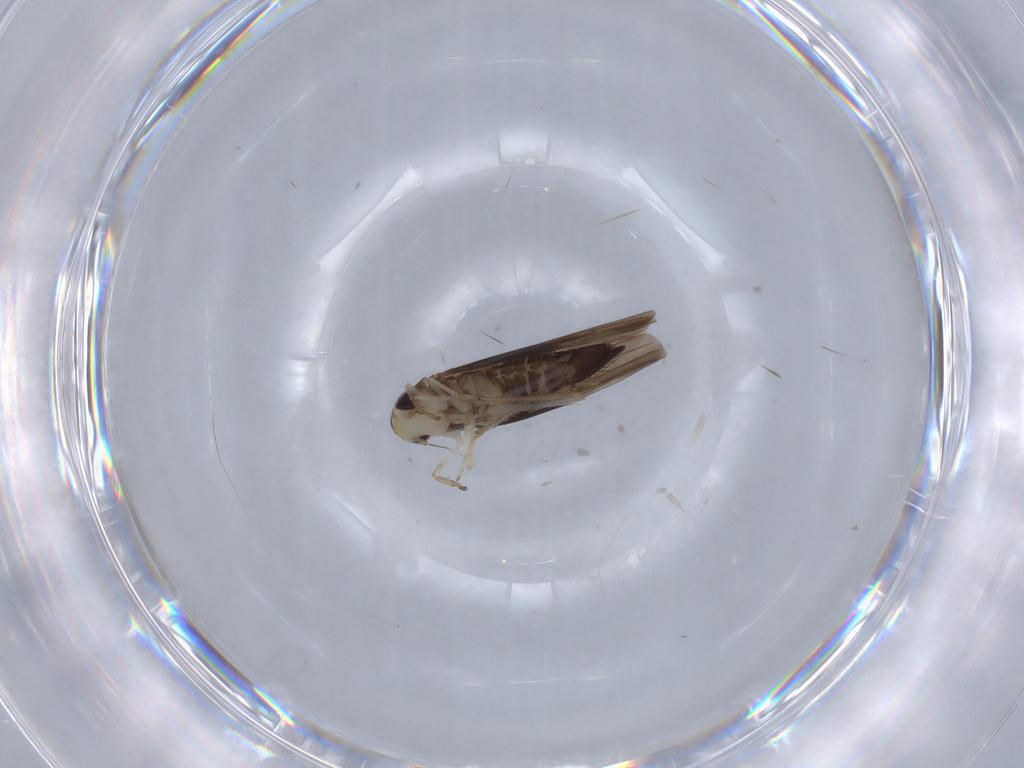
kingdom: Animalia
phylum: Arthropoda
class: Insecta
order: Hemiptera
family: Cicadellidae
